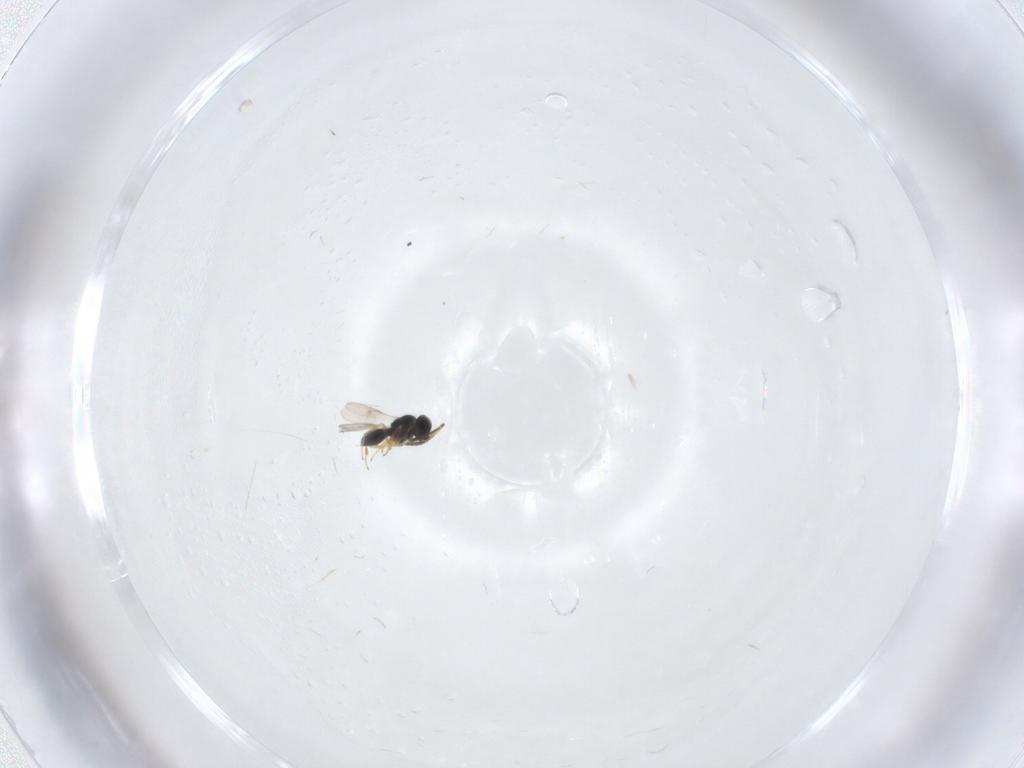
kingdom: Animalia
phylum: Arthropoda
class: Insecta
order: Hymenoptera
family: Scelionidae
